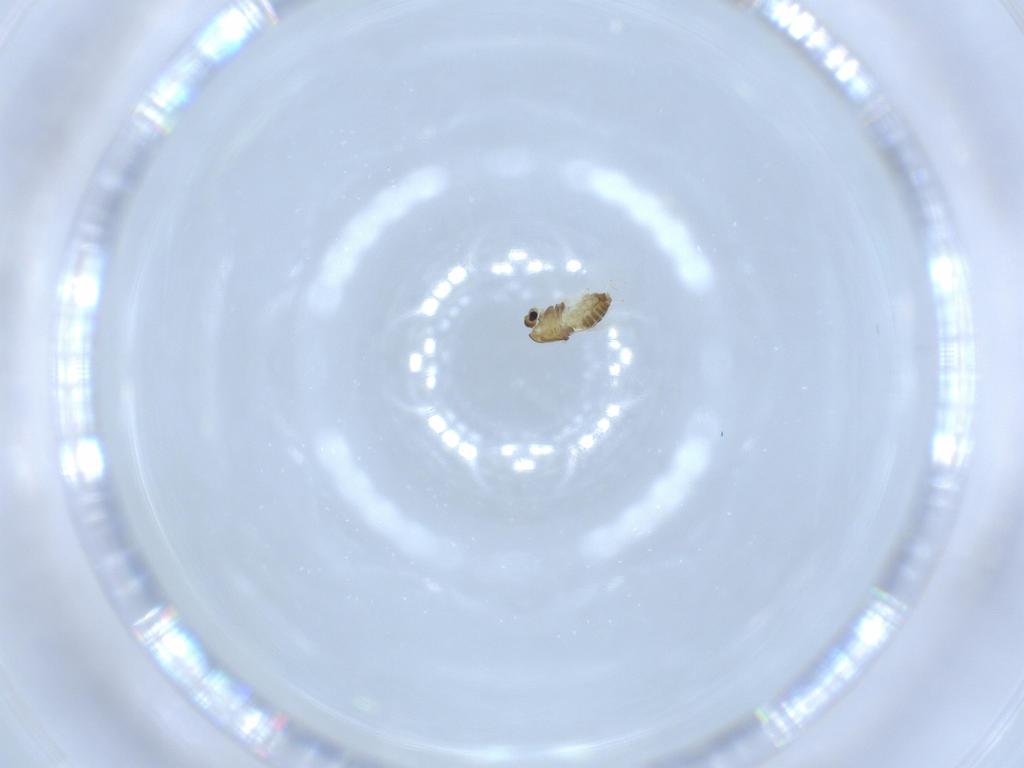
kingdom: Animalia
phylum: Arthropoda
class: Insecta
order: Diptera
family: Chironomidae
